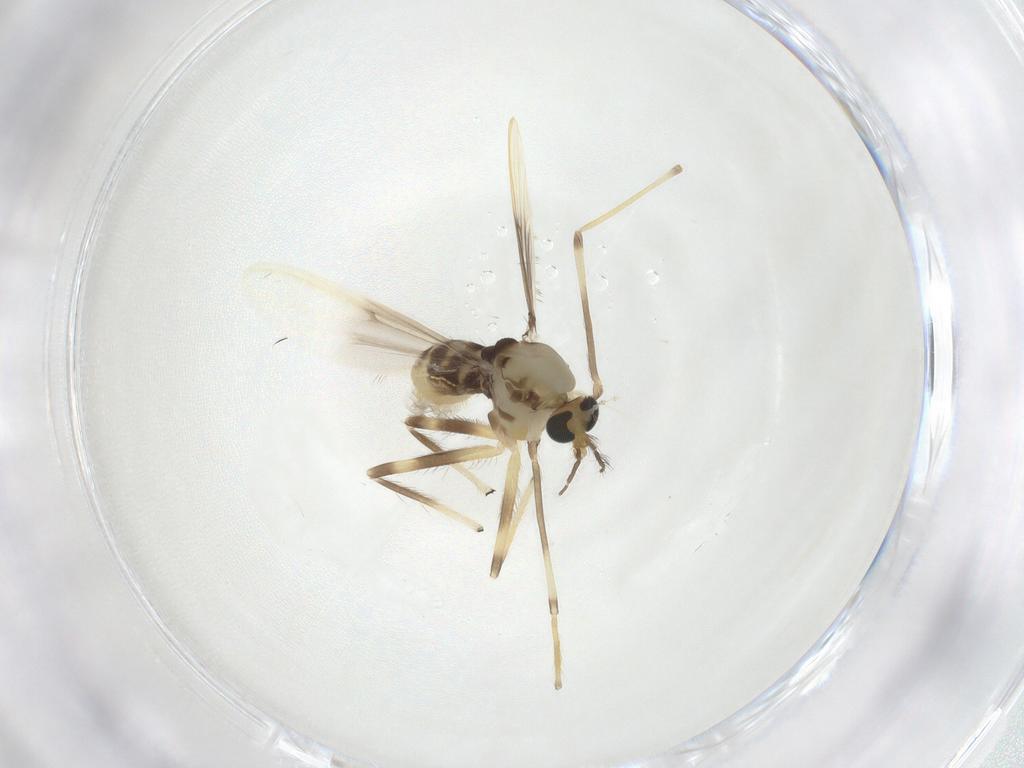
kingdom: Animalia
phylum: Arthropoda
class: Insecta
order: Diptera
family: Chironomidae
